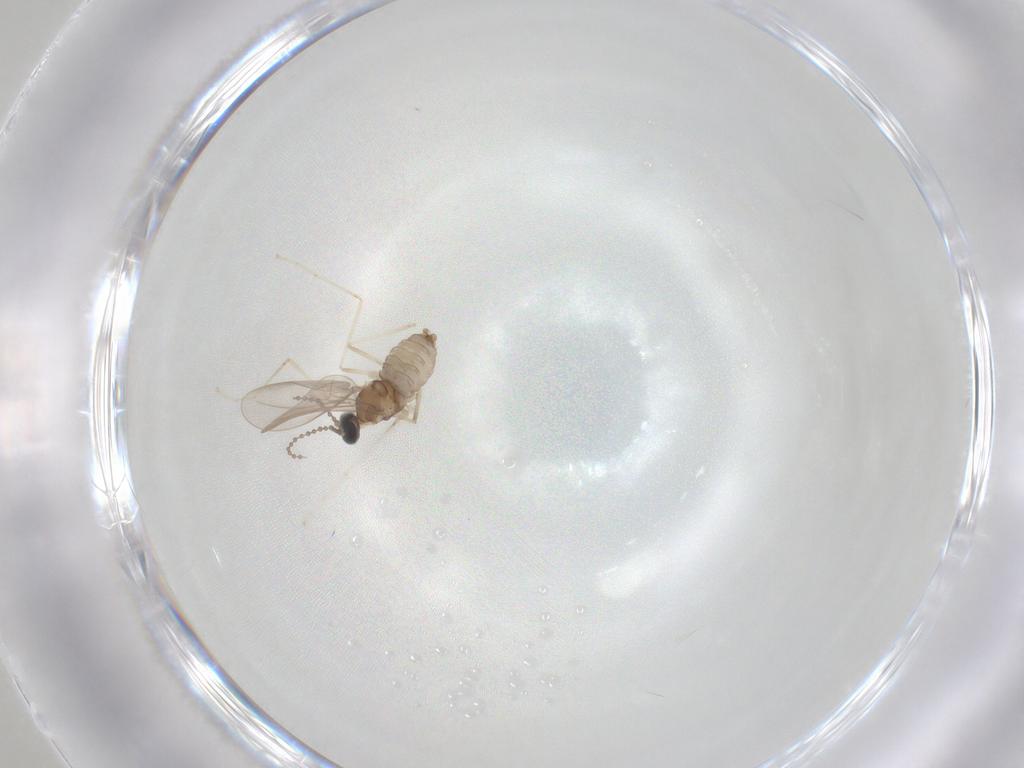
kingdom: Animalia
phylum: Arthropoda
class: Insecta
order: Diptera
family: Cecidomyiidae
